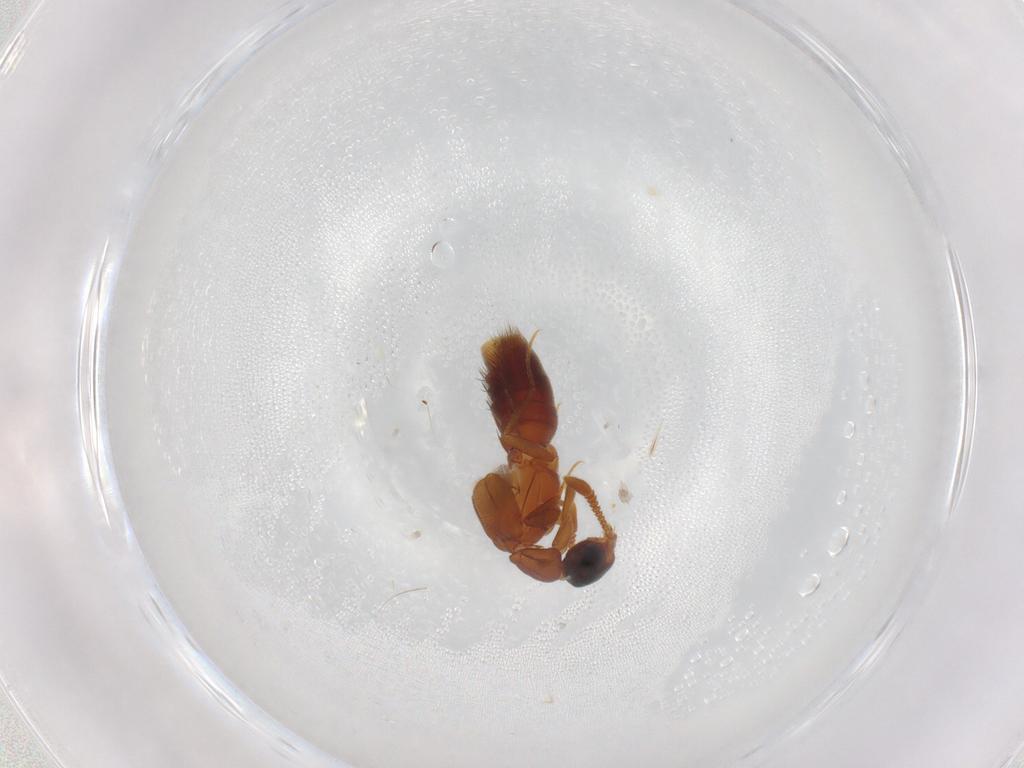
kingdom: Animalia
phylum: Arthropoda
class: Insecta
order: Coleoptera
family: Staphylinidae
